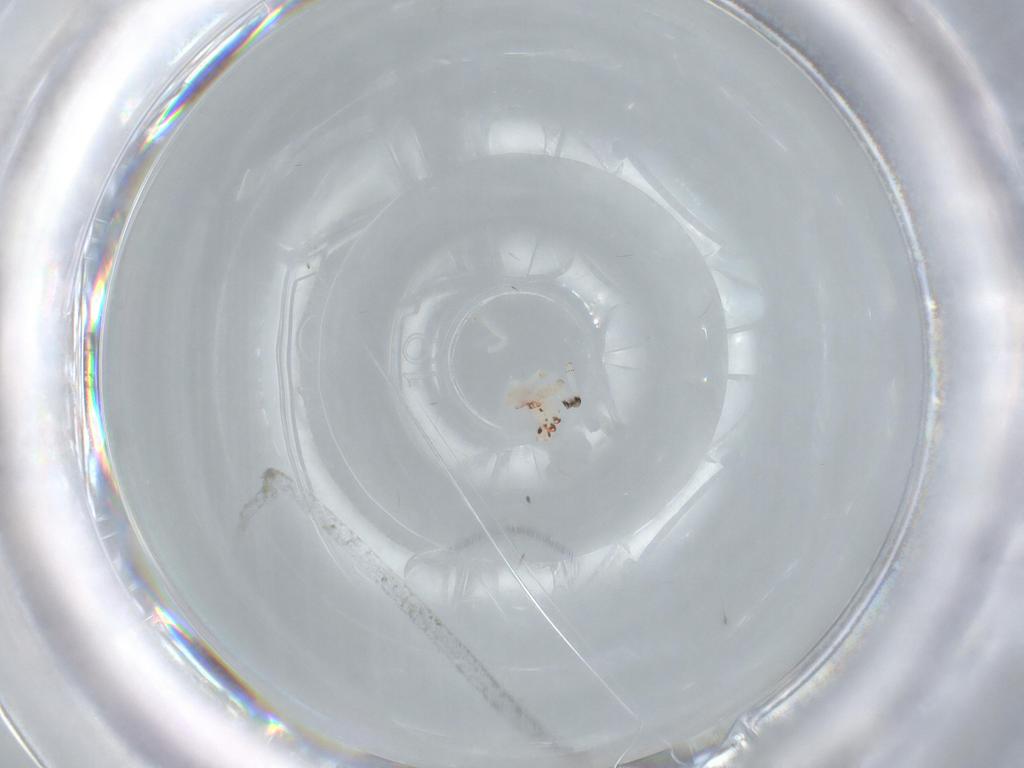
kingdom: Animalia
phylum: Arthropoda
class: Insecta
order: Hemiptera
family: Nogodinidae
